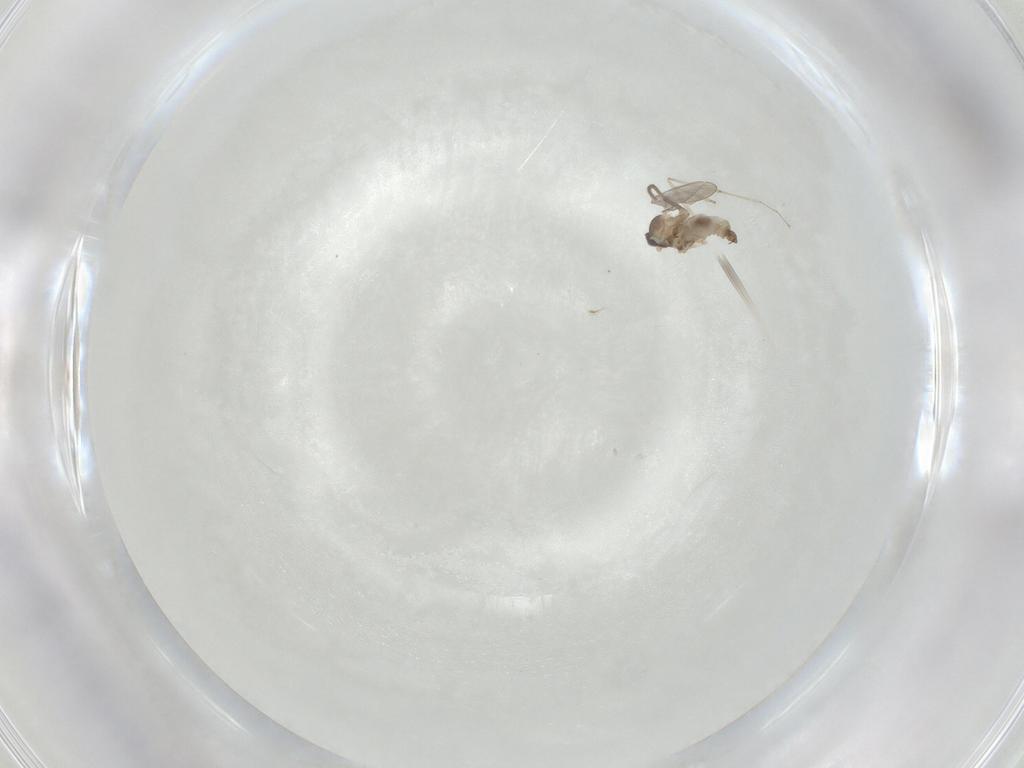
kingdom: Animalia
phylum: Arthropoda
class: Insecta
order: Diptera
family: Cecidomyiidae
